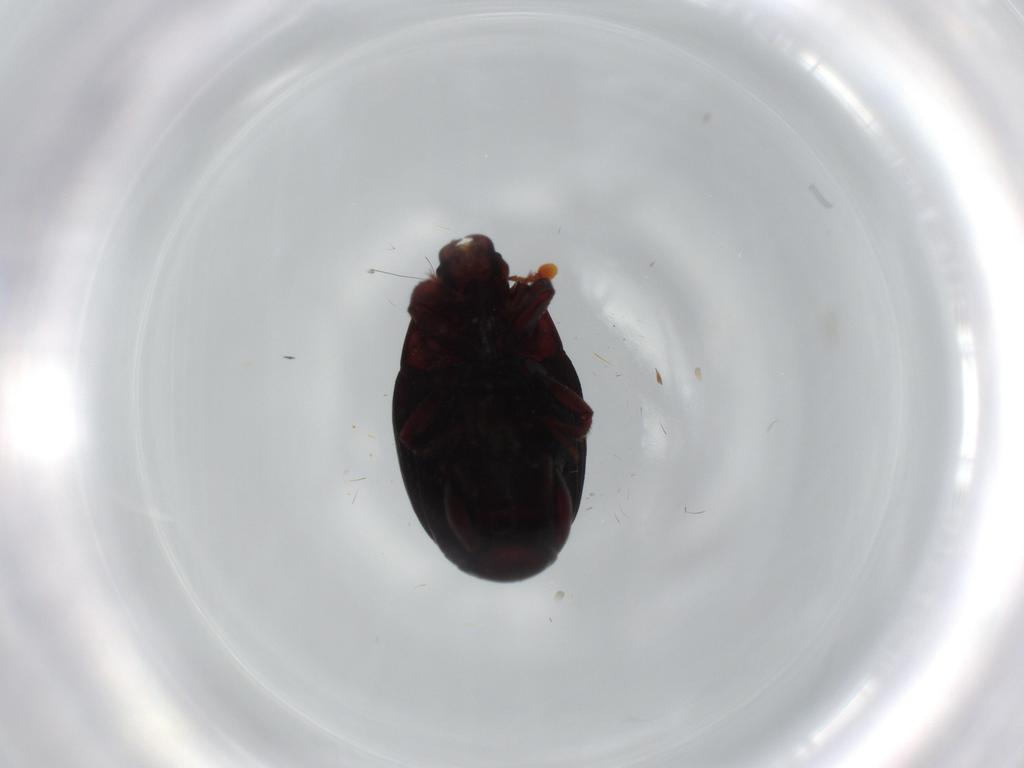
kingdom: Animalia
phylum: Arthropoda
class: Insecta
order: Coleoptera
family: Histeridae
